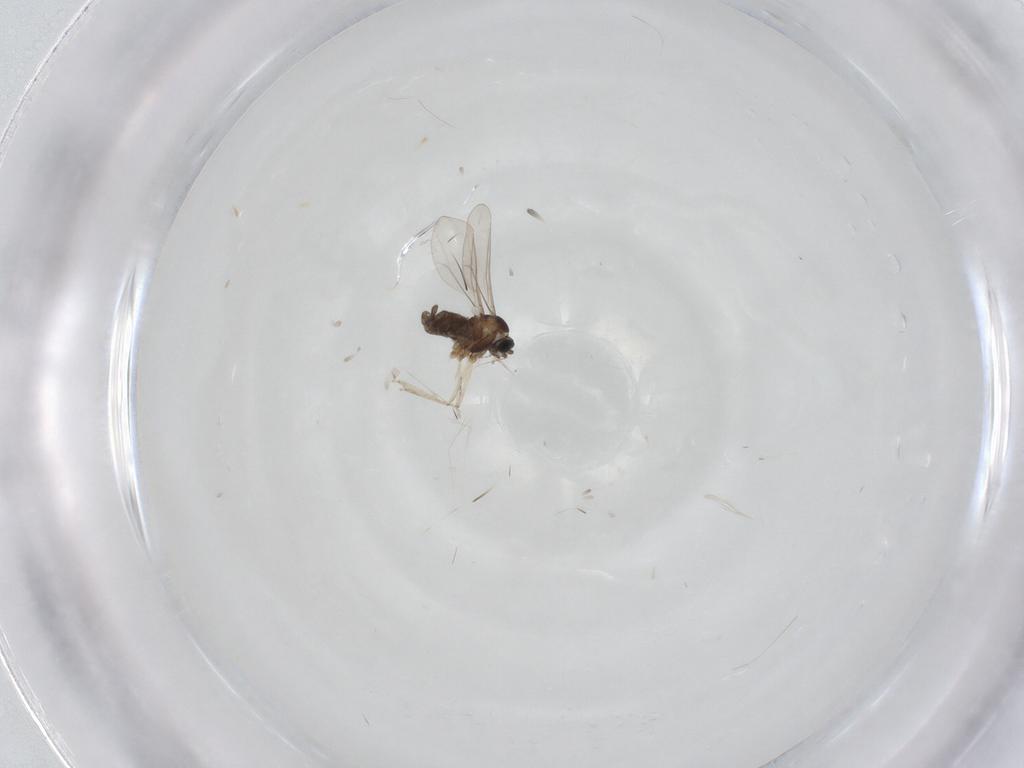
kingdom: Animalia
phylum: Arthropoda
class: Insecta
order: Diptera
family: Cecidomyiidae
